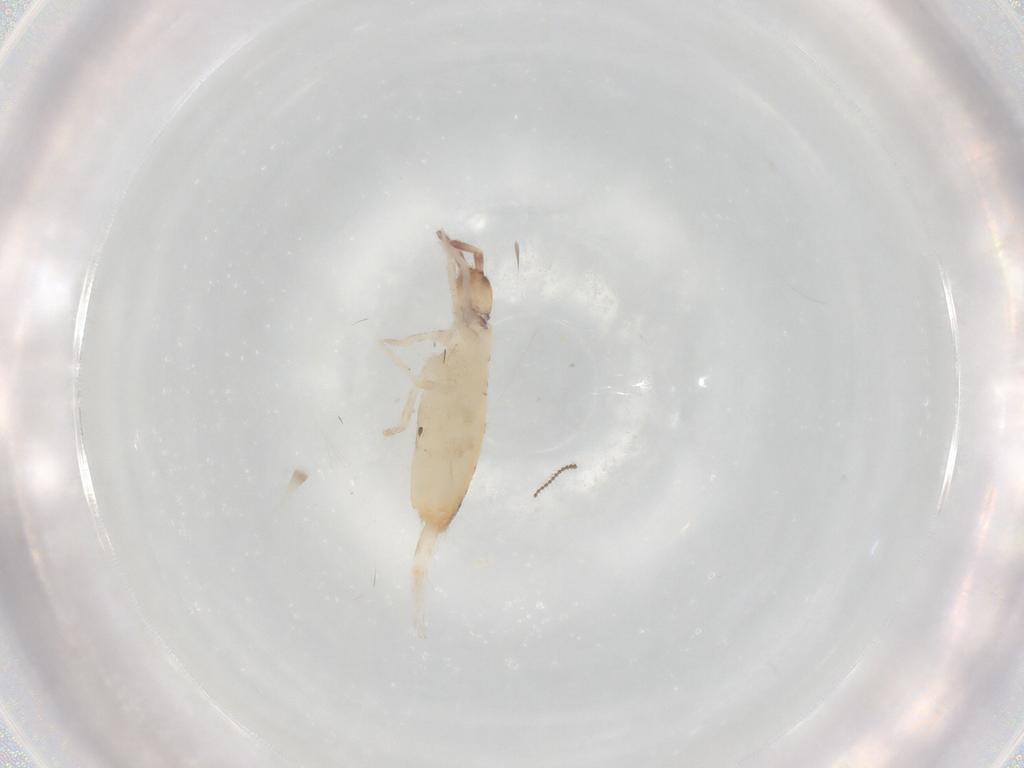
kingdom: Animalia
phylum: Arthropoda
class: Collembola
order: Entomobryomorpha
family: Entomobryidae
